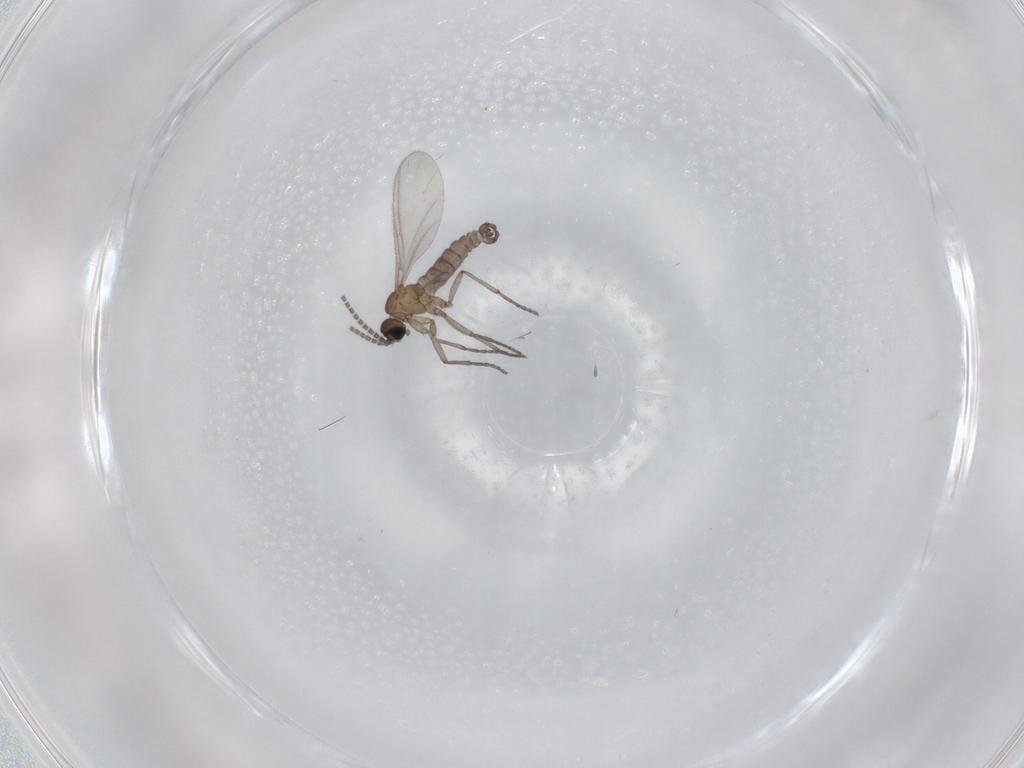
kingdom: Animalia
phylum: Arthropoda
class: Insecta
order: Diptera
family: Sciaridae
